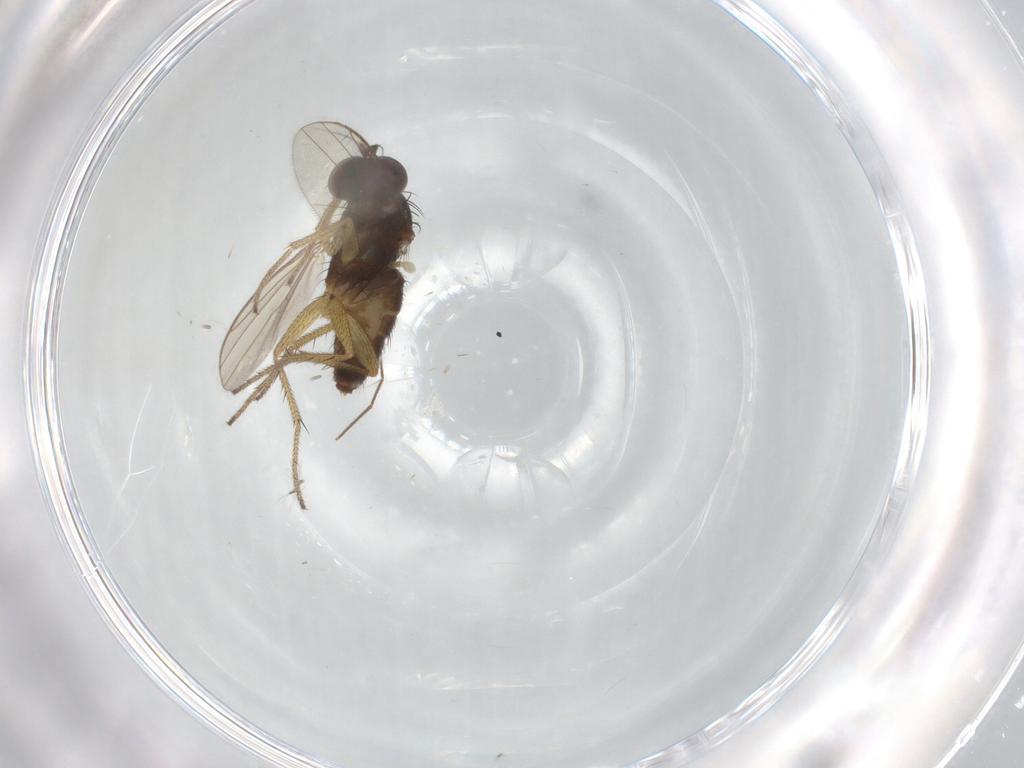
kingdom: Animalia
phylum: Arthropoda
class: Insecta
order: Diptera
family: Chironomidae
